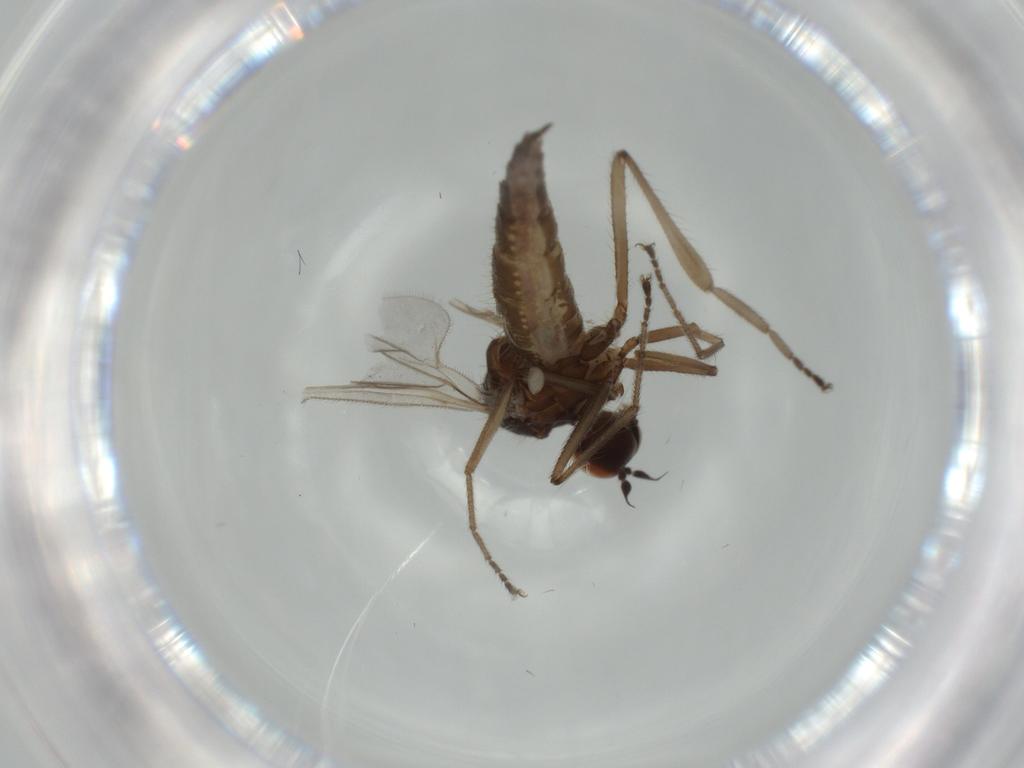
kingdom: Animalia
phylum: Arthropoda
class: Insecta
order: Diptera
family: Hybotidae
